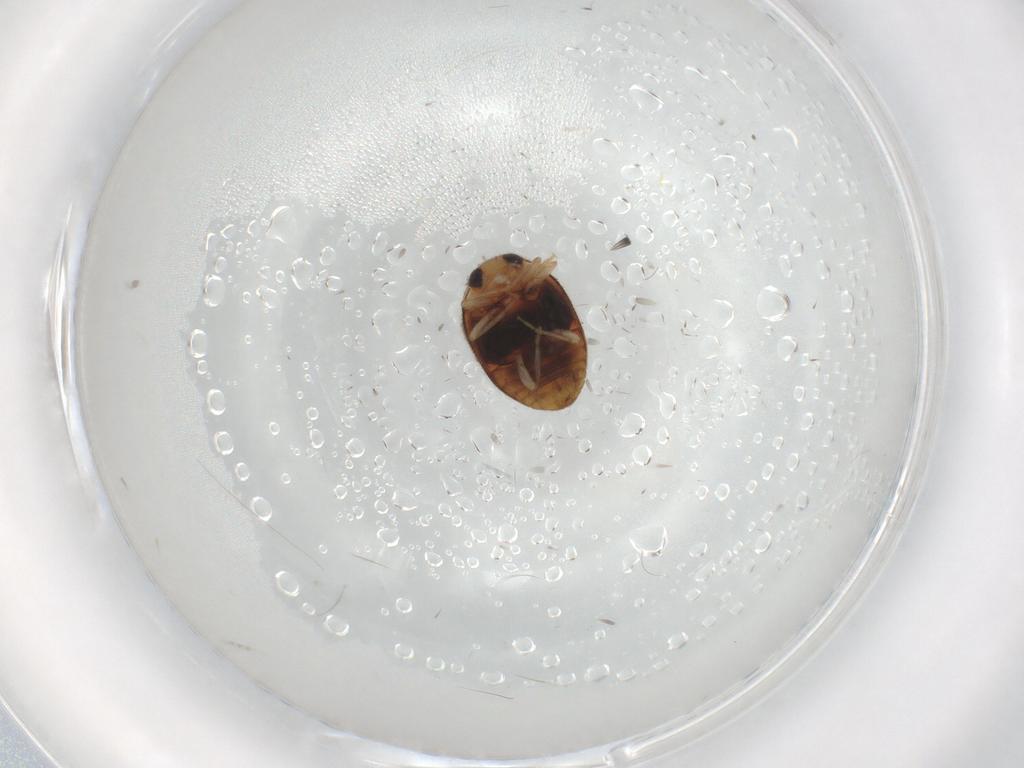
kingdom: Animalia
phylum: Arthropoda
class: Insecta
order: Coleoptera
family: Coccinellidae
